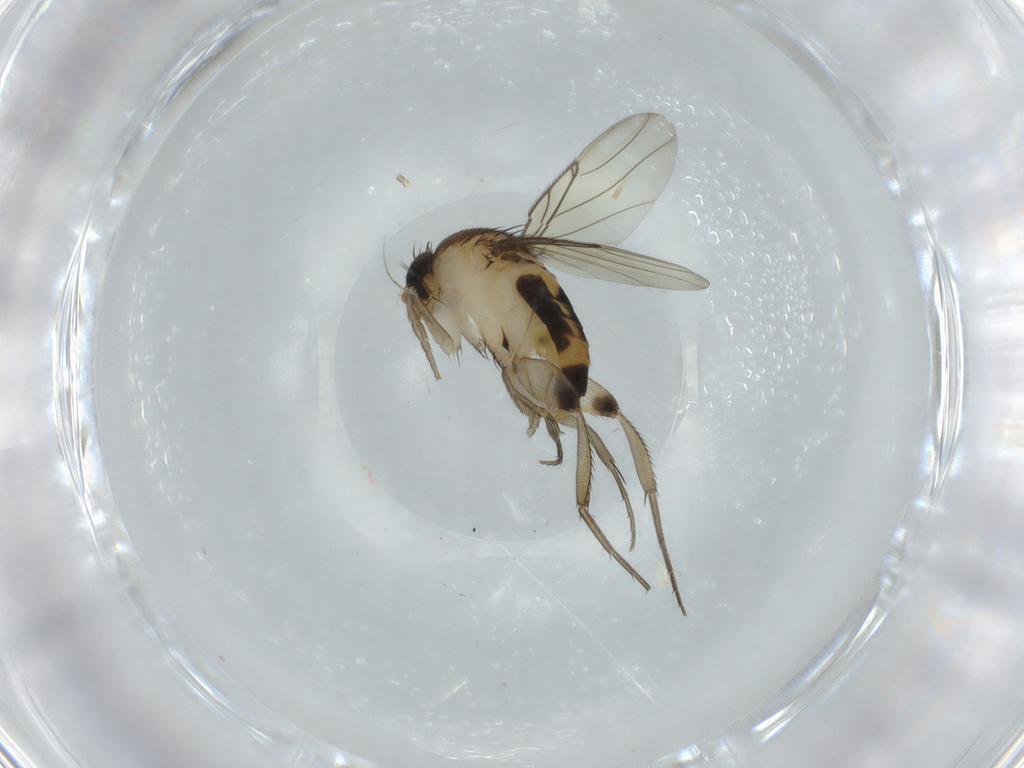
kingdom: Animalia
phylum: Arthropoda
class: Insecta
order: Diptera
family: Phoridae
